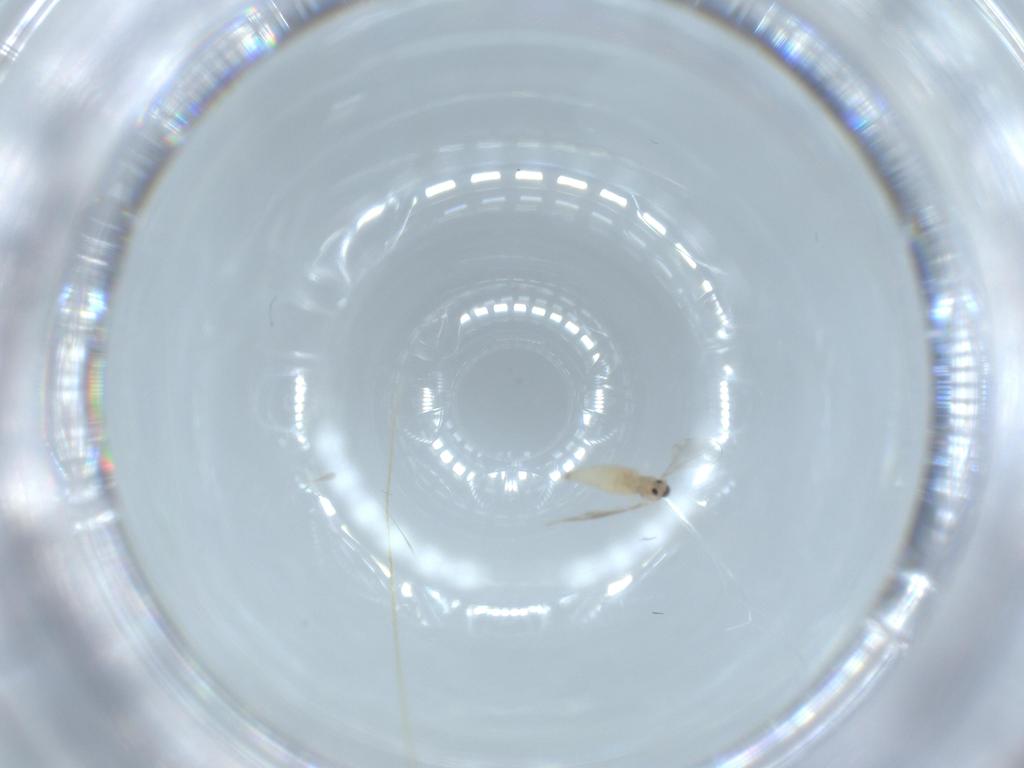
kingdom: Animalia
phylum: Arthropoda
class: Insecta
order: Diptera
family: Cecidomyiidae
